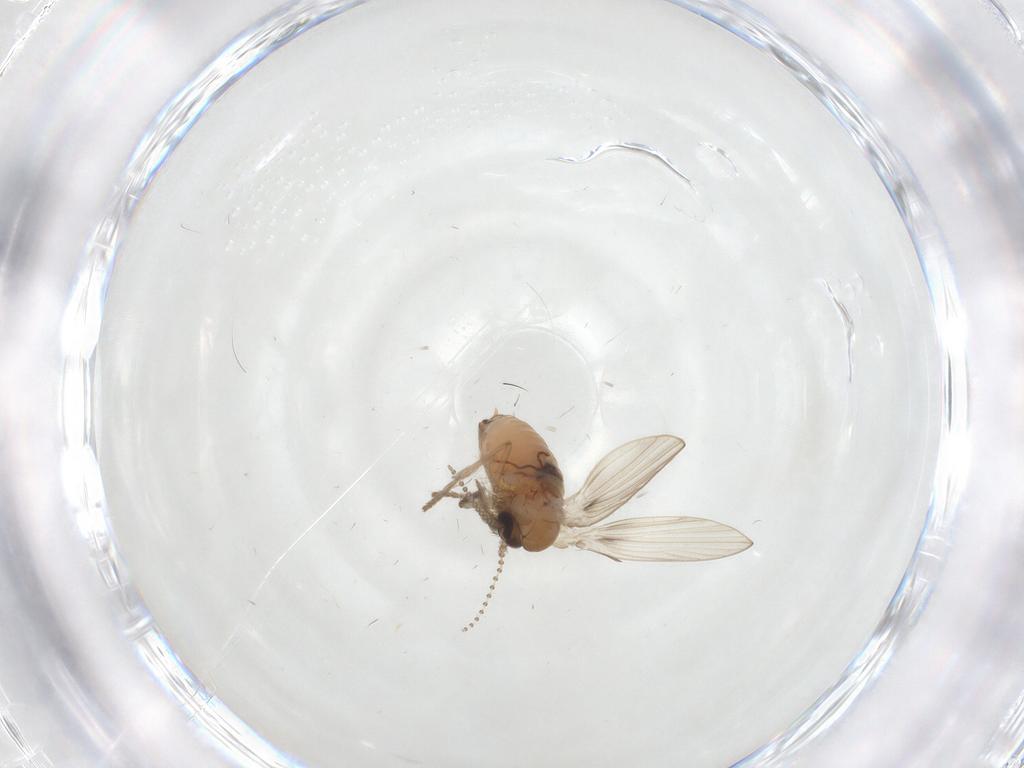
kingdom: Animalia
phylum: Arthropoda
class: Insecta
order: Diptera
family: Psychodidae
